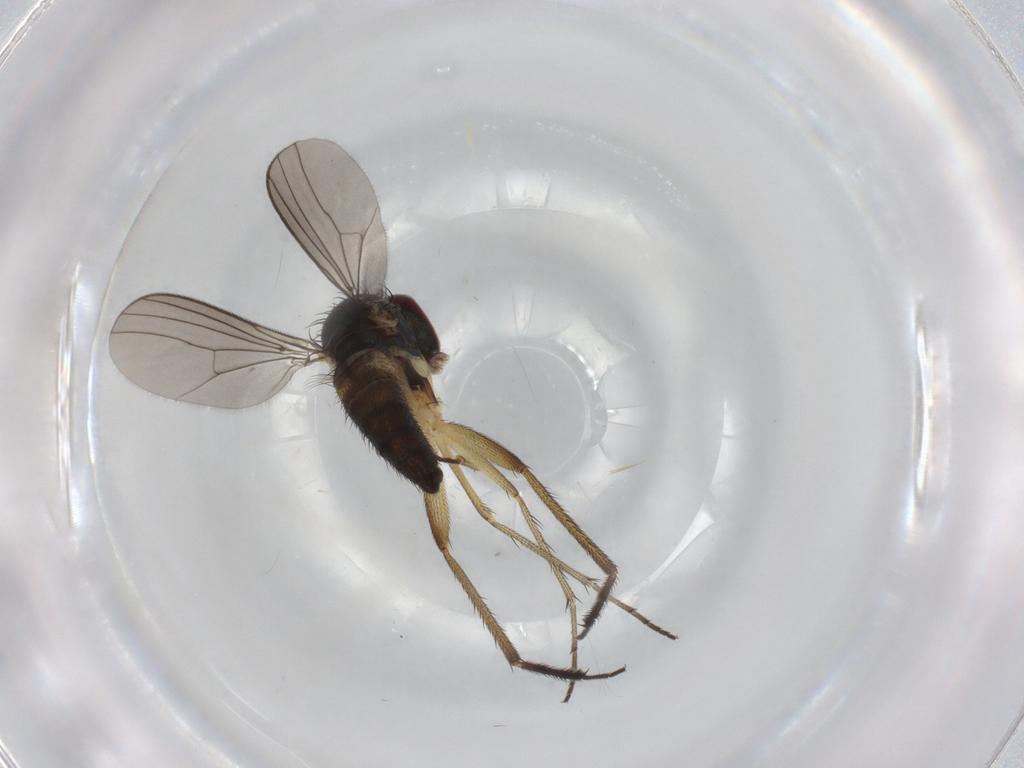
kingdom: Animalia
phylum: Arthropoda
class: Insecta
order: Diptera
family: Dolichopodidae
